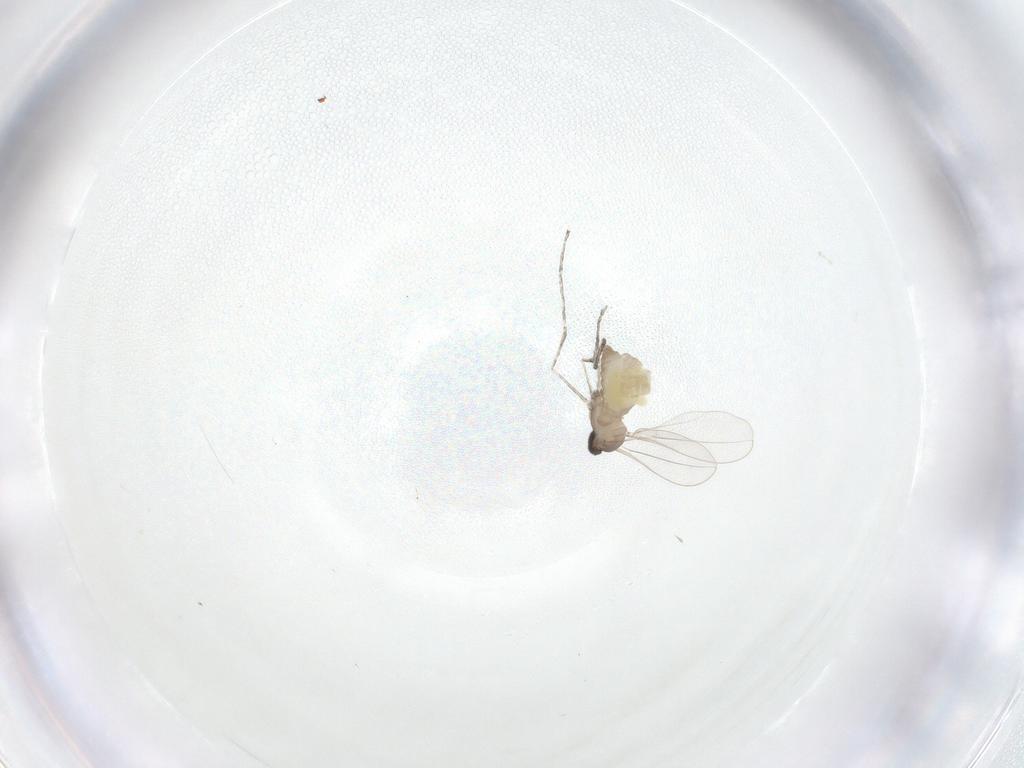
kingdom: Animalia
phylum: Arthropoda
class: Insecta
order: Diptera
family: Cecidomyiidae
